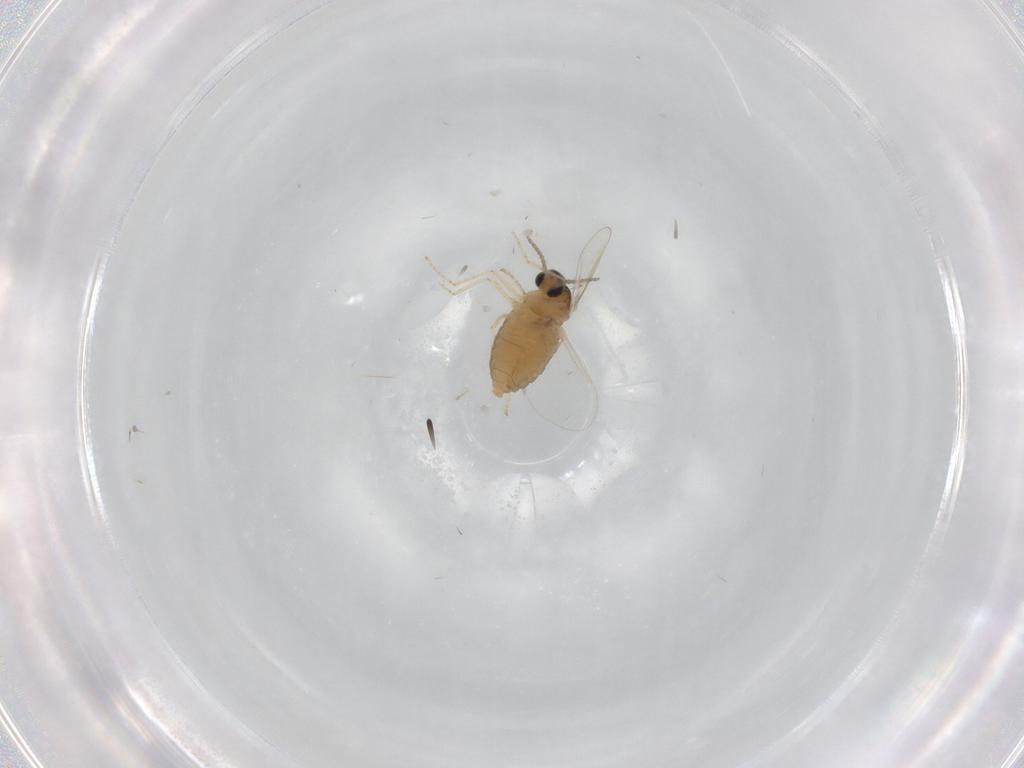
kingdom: Animalia
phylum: Arthropoda
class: Insecta
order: Diptera
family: Cecidomyiidae
